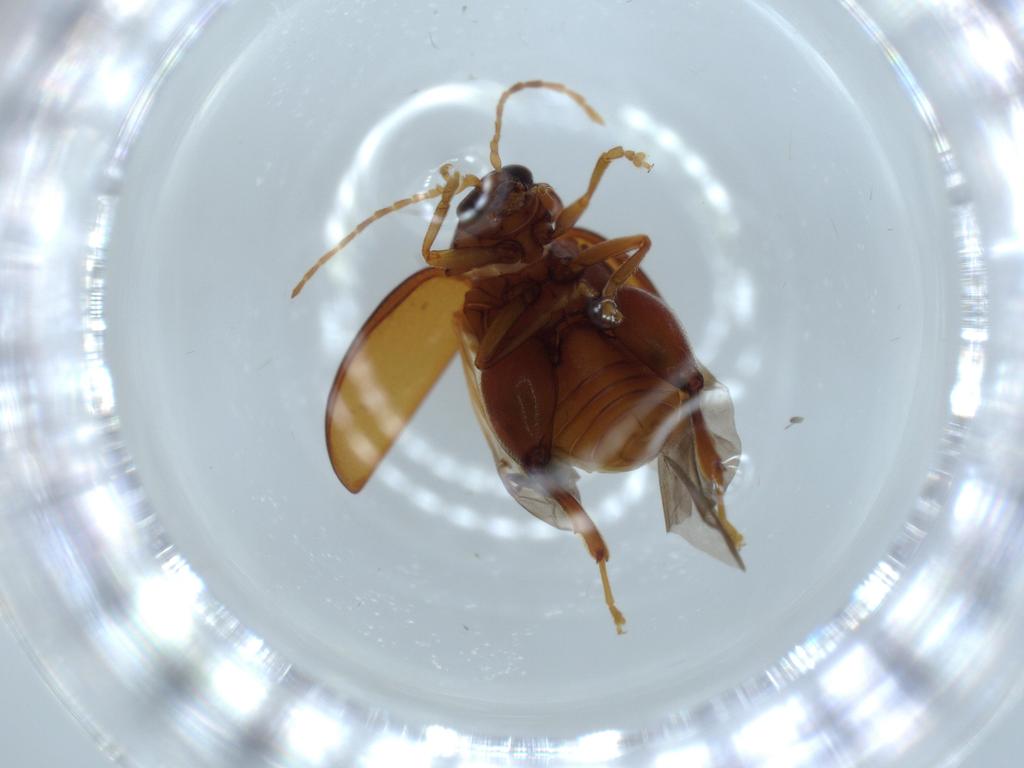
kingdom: Animalia
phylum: Arthropoda
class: Insecta
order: Coleoptera
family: Chrysomelidae
